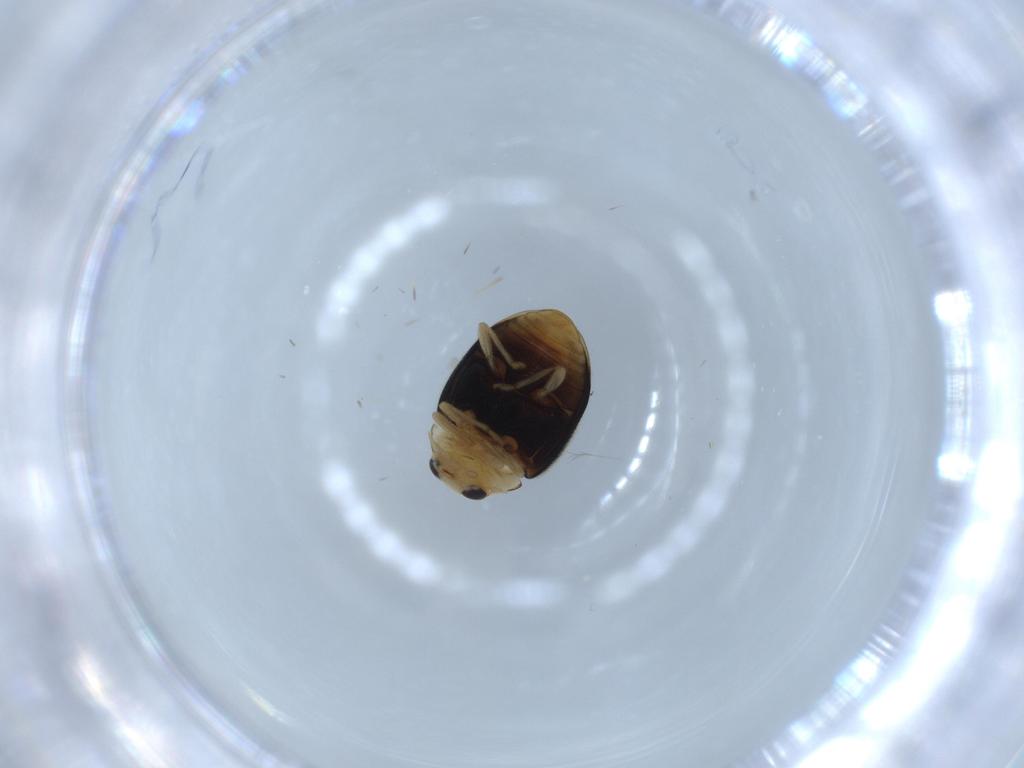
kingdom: Animalia
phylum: Arthropoda
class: Insecta
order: Coleoptera
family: Coccinellidae
